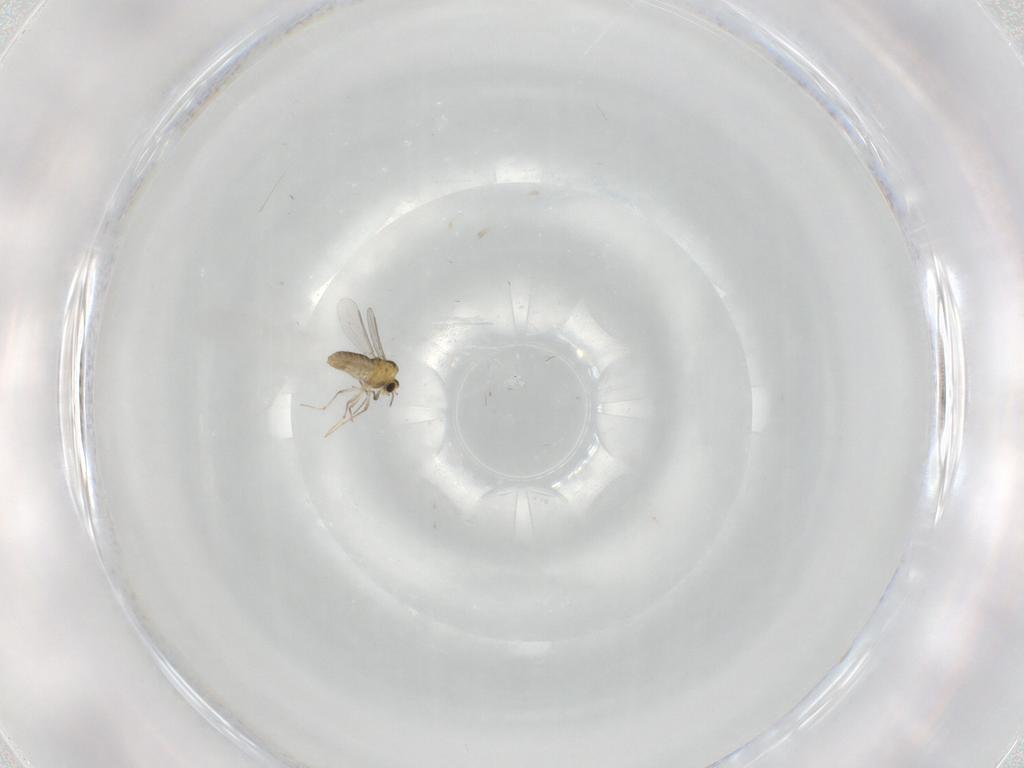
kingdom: Animalia
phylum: Arthropoda
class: Insecta
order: Diptera
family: Chironomidae
